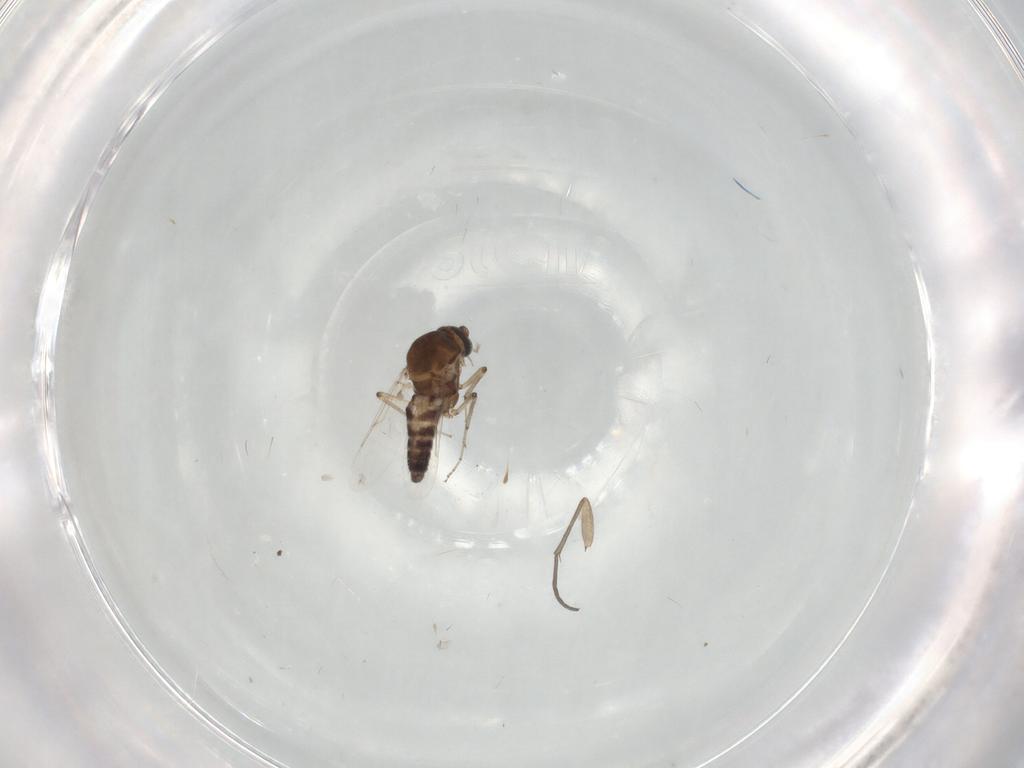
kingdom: Animalia
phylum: Arthropoda
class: Insecta
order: Diptera
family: Ceratopogonidae
